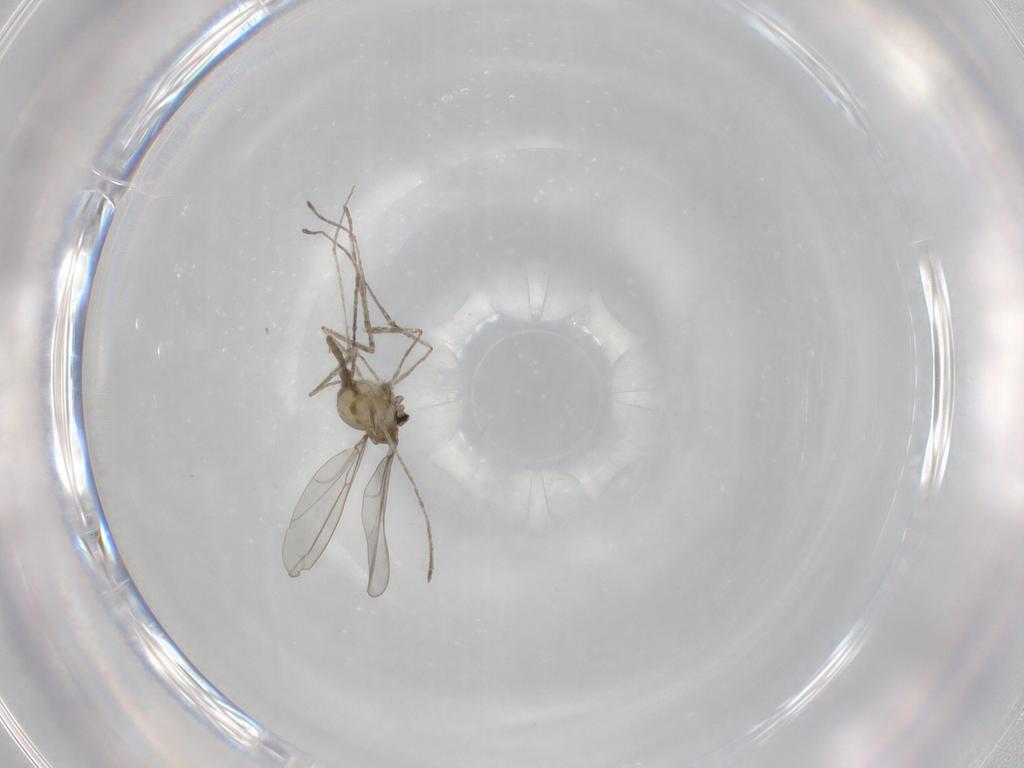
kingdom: Animalia
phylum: Arthropoda
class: Insecta
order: Diptera
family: Cecidomyiidae
